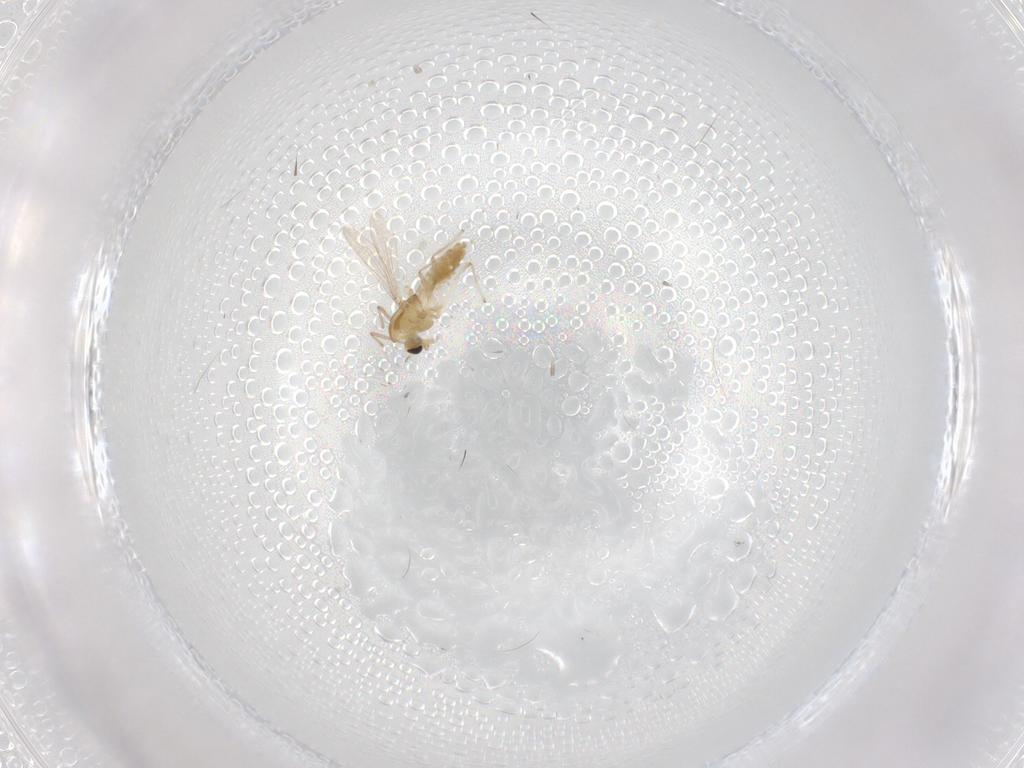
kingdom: Animalia
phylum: Arthropoda
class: Insecta
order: Diptera
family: Chironomidae
